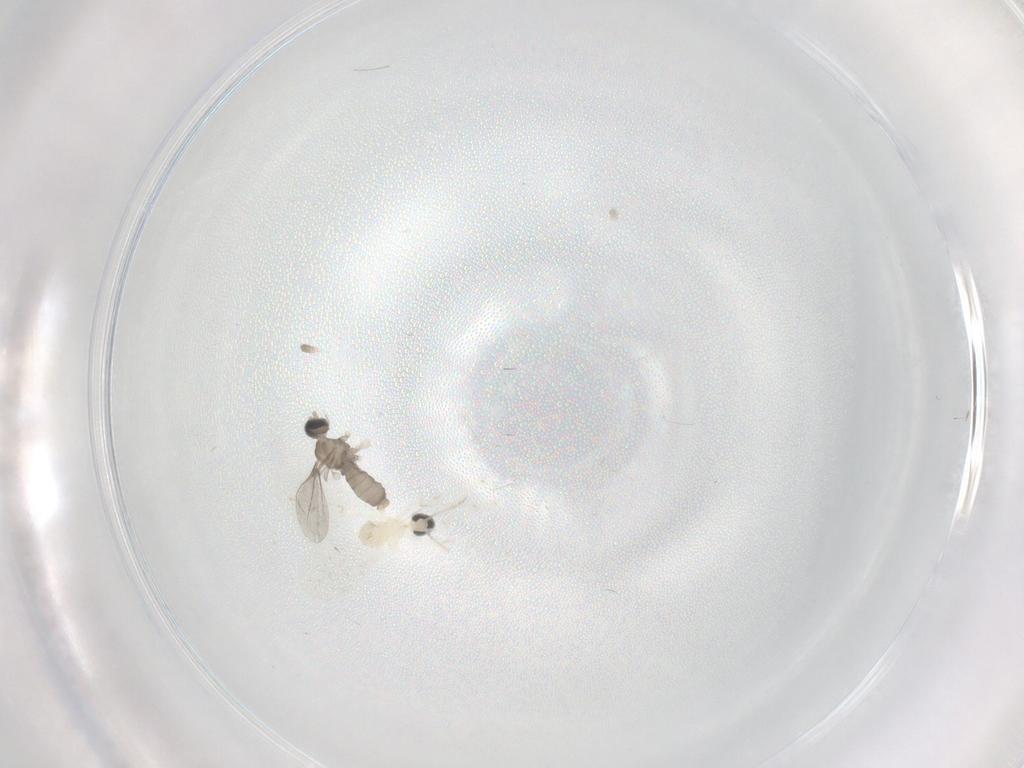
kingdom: Animalia
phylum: Arthropoda
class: Insecta
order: Diptera
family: Cecidomyiidae
